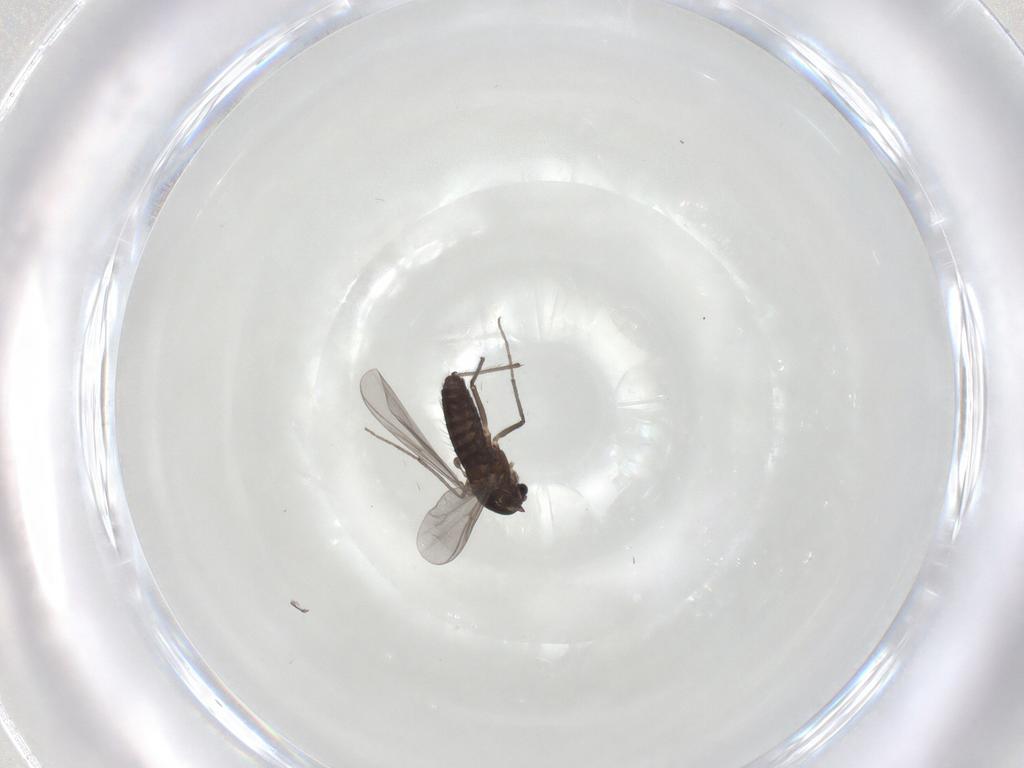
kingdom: Animalia
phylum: Arthropoda
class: Insecta
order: Diptera
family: Chironomidae
